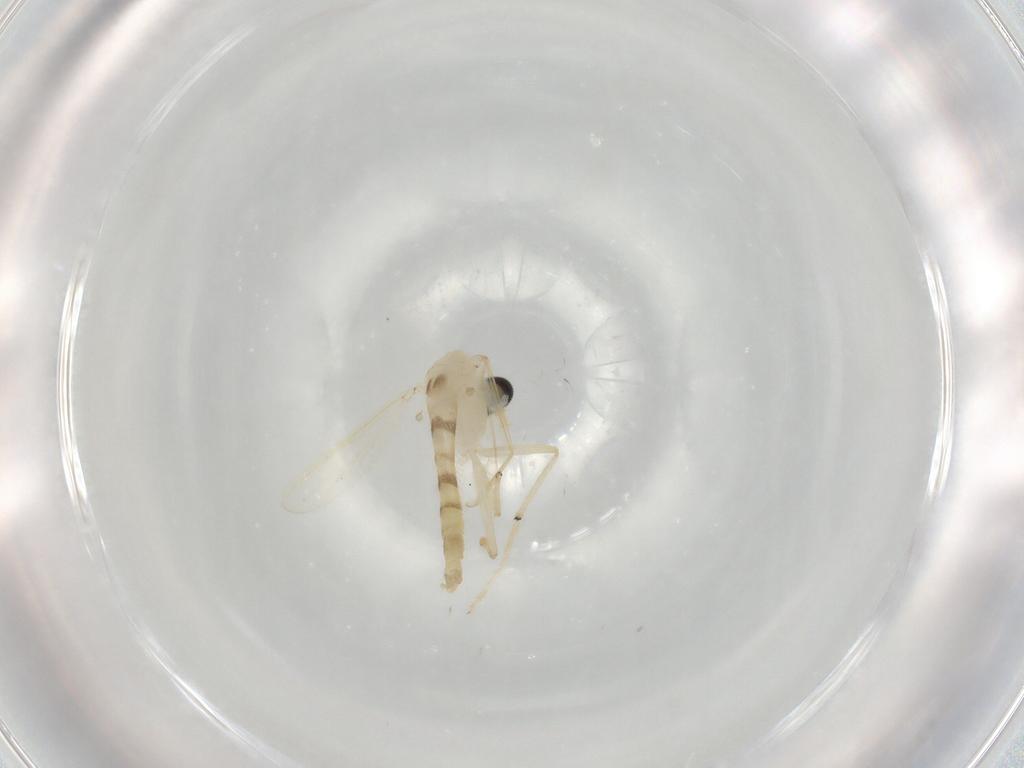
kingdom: Animalia
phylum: Arthropoda
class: Insecta
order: Diptera
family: Chironomidae
